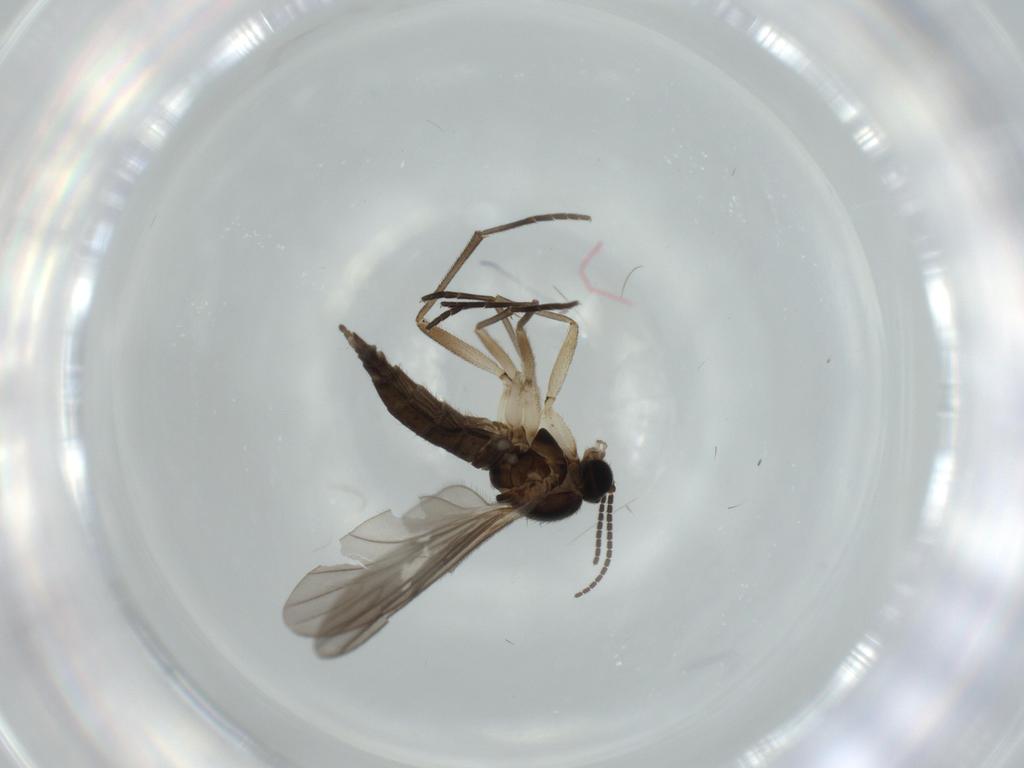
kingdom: Animalia
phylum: Arthropoda
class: Insecta
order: Diptera
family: Sciaridae
